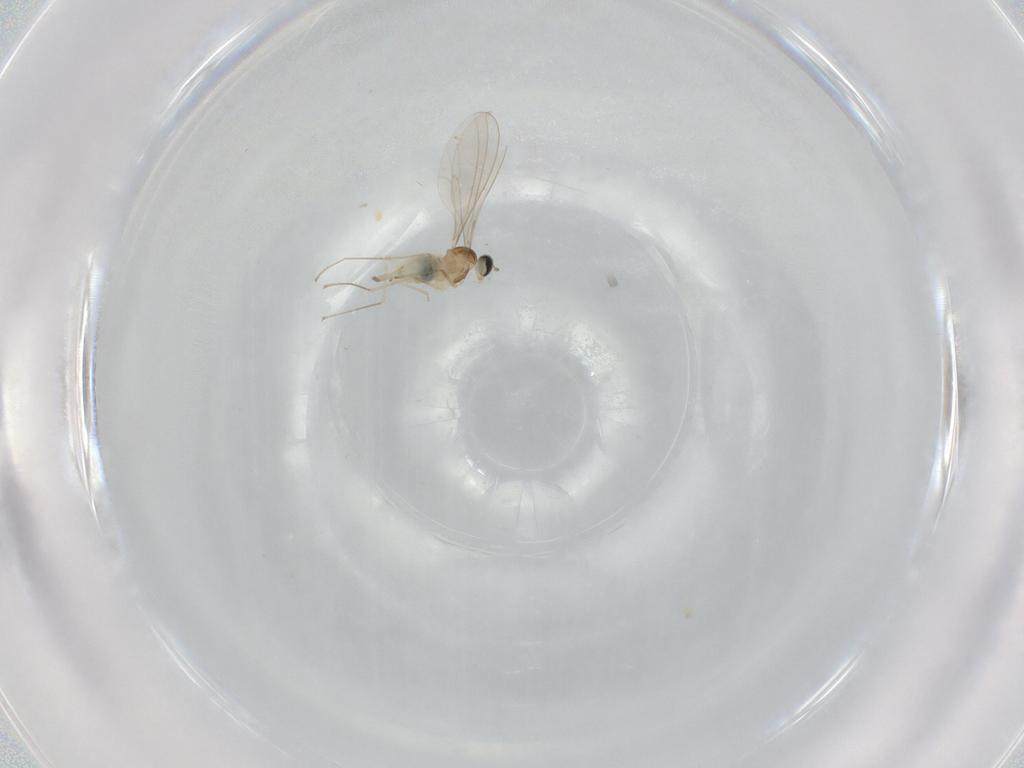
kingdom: Animalia
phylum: Arthropoda
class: Insecta
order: Diptera
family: Cecidomyiidae
